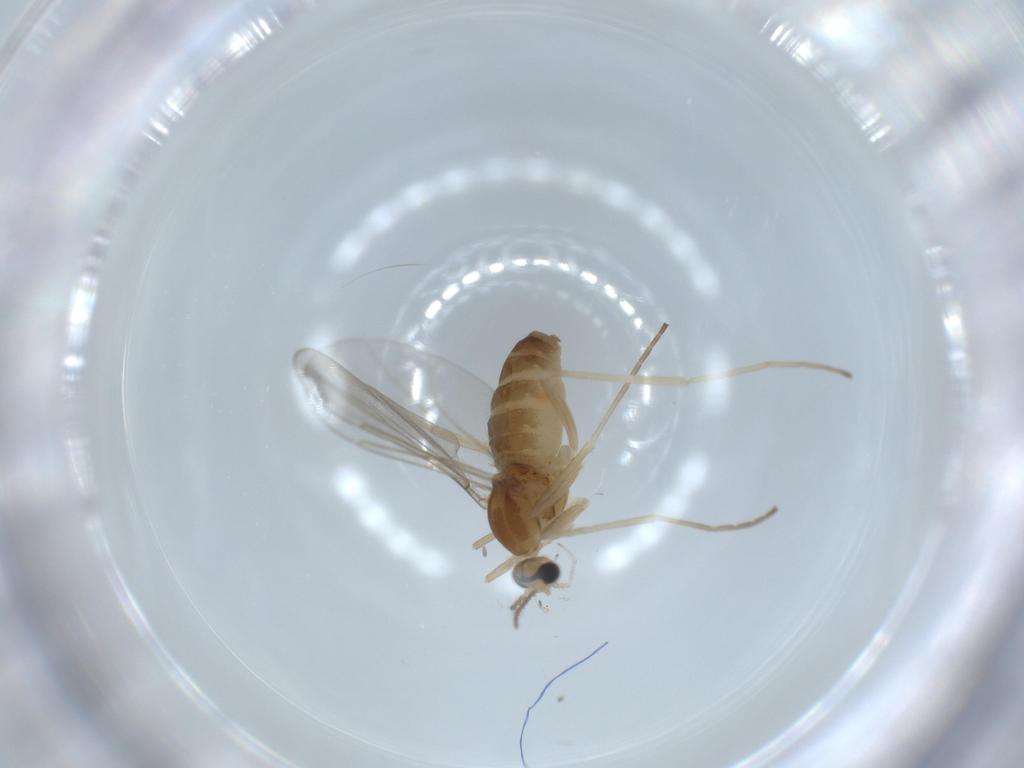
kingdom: Animalia
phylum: Arthropoda
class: Insecta
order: Diptera
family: Cecidomyiidae
